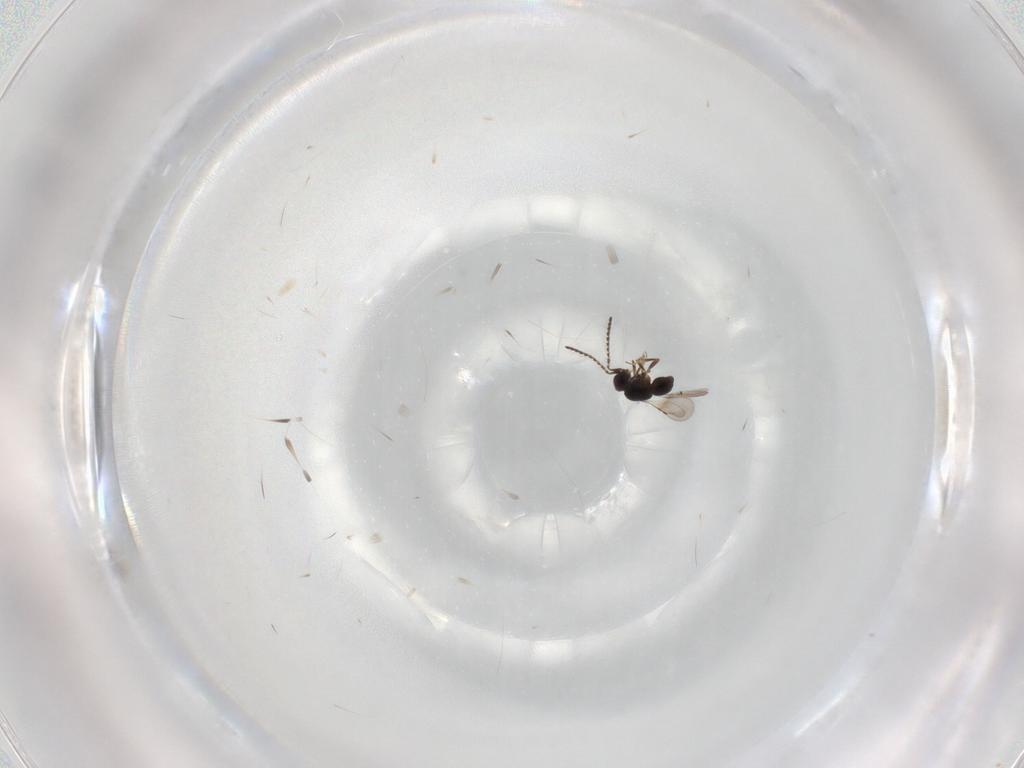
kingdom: Animalia
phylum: Arthropoda
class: Insecta
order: Hymenoptera
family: Scelionidae
